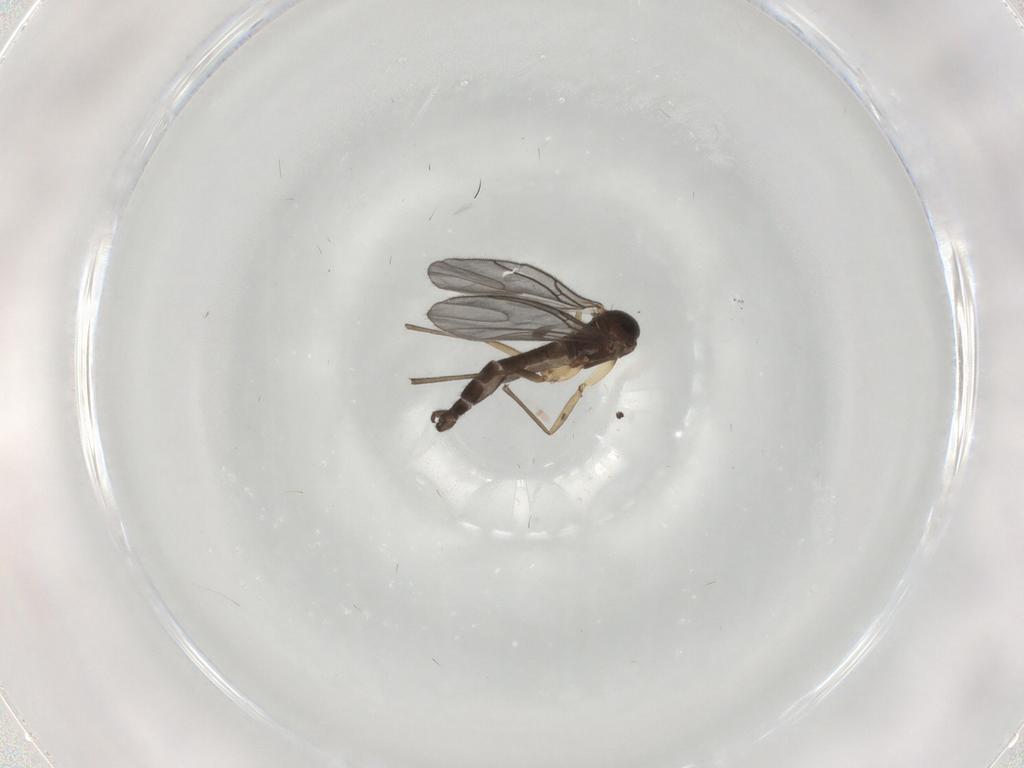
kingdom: Animalia
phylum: Arthropoda
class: Insecta
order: Diptera
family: Sciaridae
